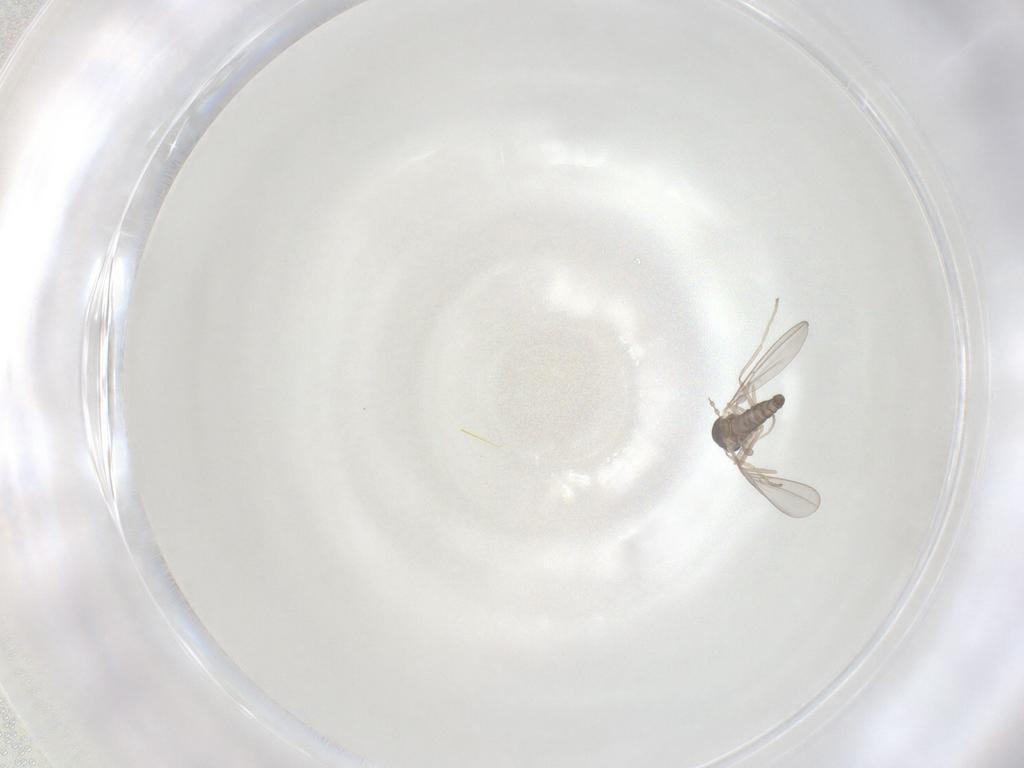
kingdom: Animalia
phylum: Arthropoda
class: Insecta
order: Diptera
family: Cecidomyiidae
